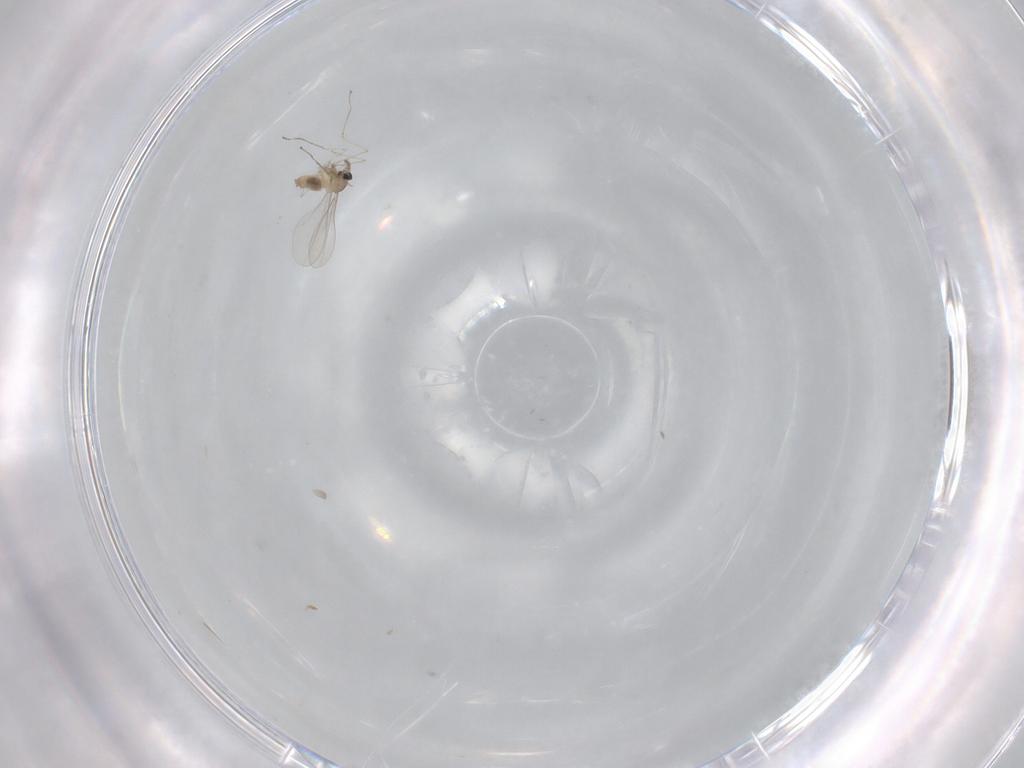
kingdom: Animalia
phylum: Arthropoda
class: Insecta
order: Diptera
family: Cecidomyiidae
